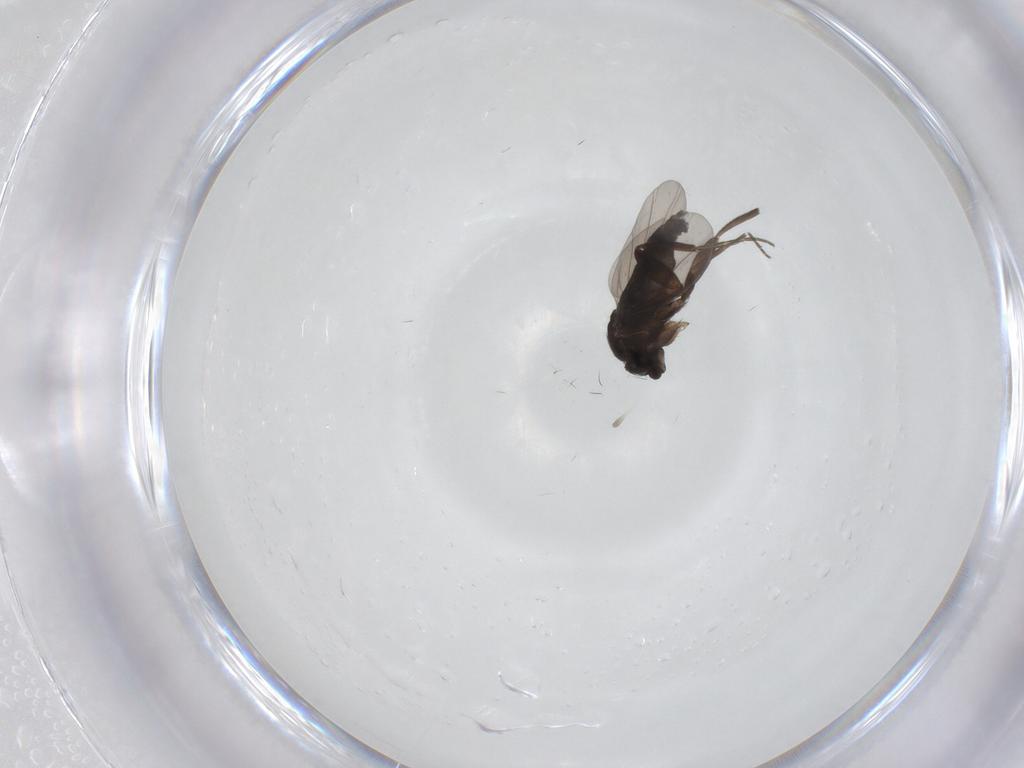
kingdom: Animalia
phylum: Arthropoda
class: Insecta
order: Diptera
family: Phoridae
